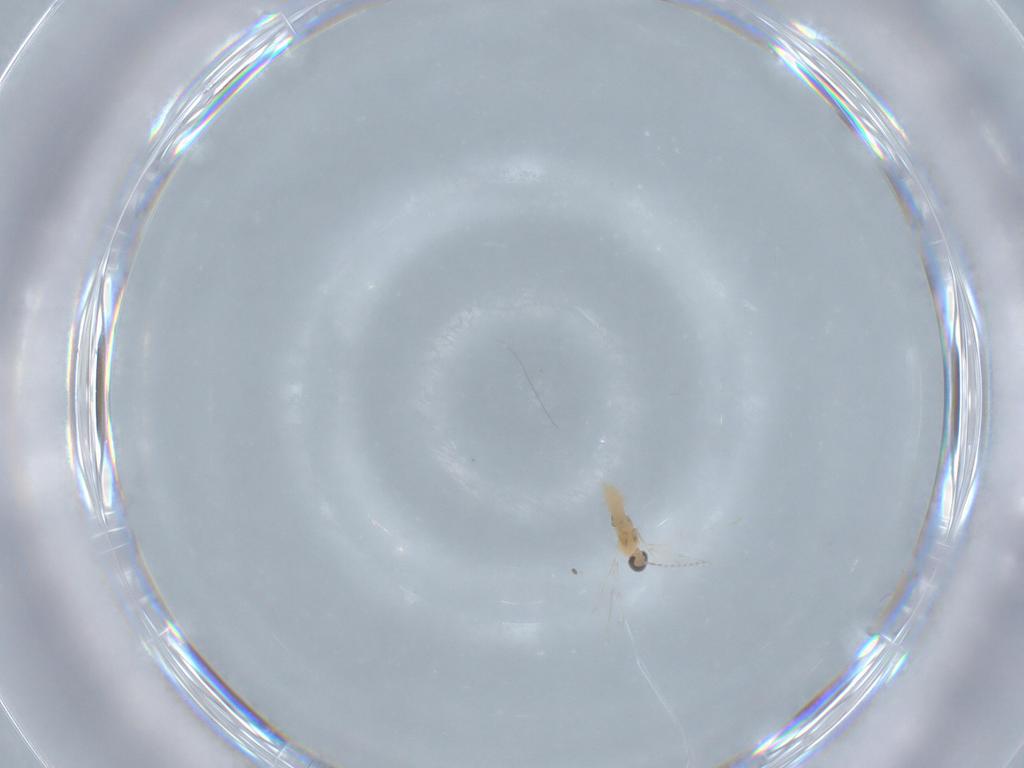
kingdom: Animalia
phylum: Arthropoda
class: Insecta
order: Diptera
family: Cecidomyiidae
